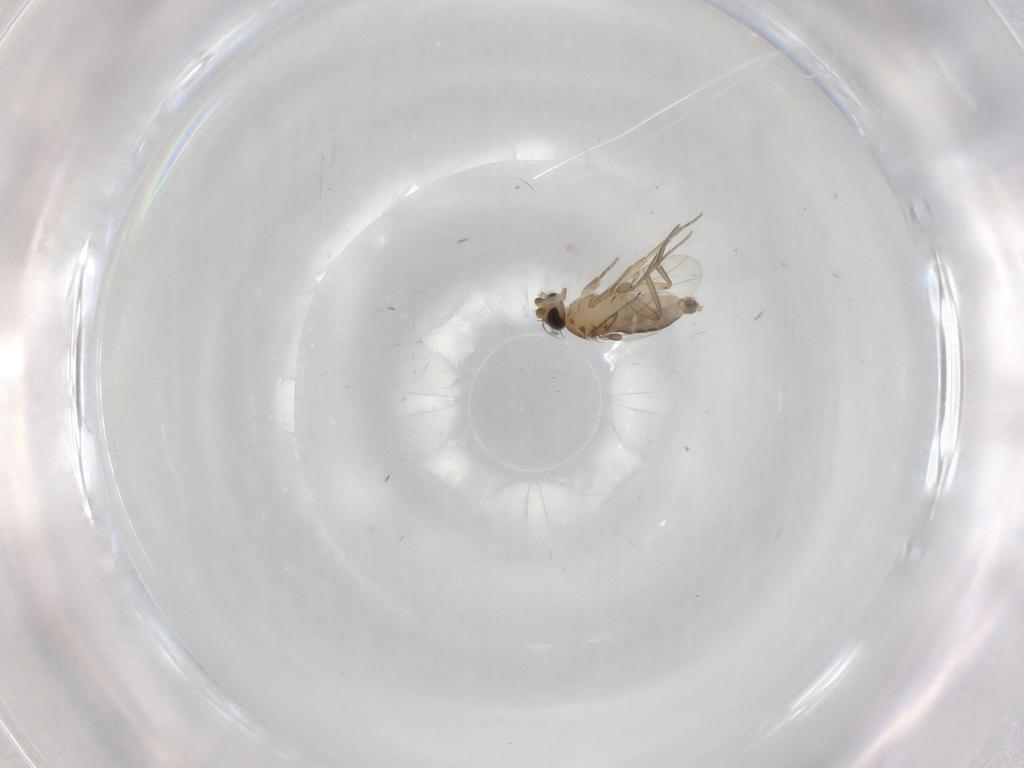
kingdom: Animalia
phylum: Arthropoda
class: Insecta
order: Diptera
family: Phoridae
